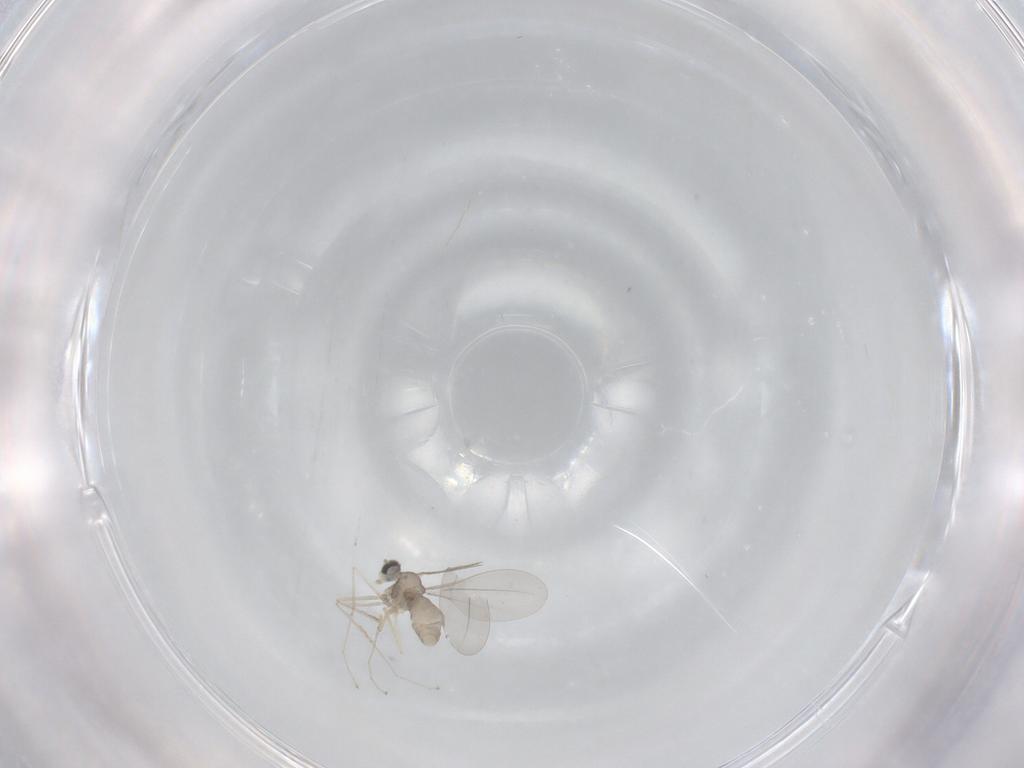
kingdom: Animalia
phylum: Arthropoda
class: Insecta
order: Diptera
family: Cecidomyiidae
